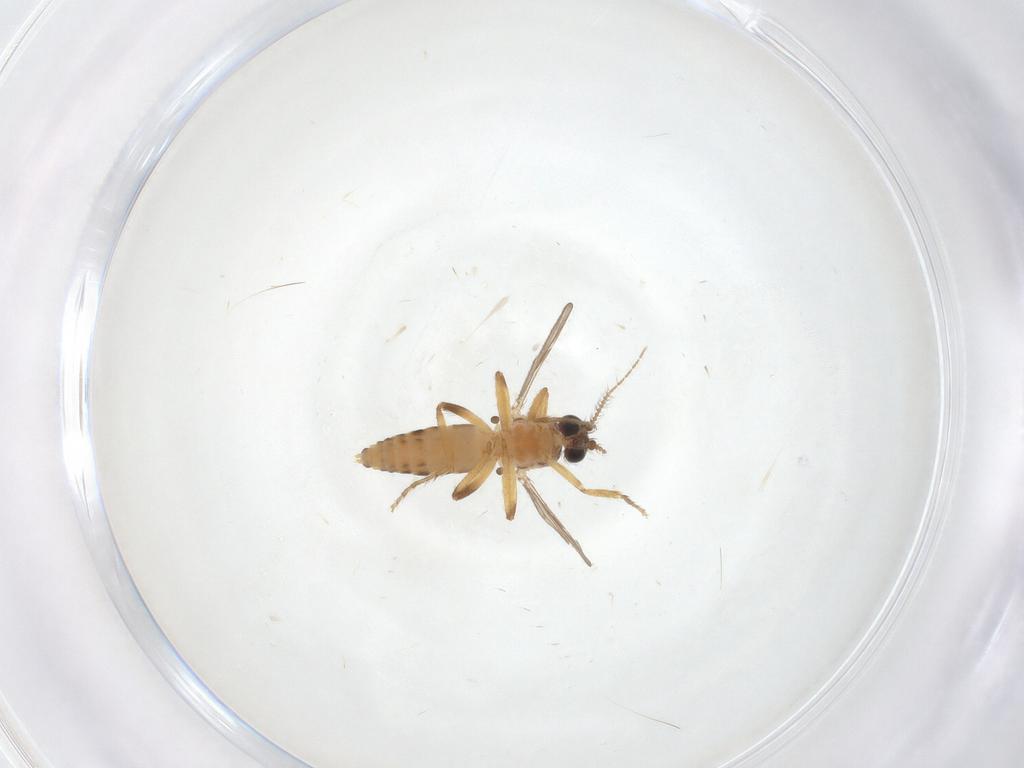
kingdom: Animalia
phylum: Arthropoda
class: Insecta
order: Diptera
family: Ceratopogonidae
